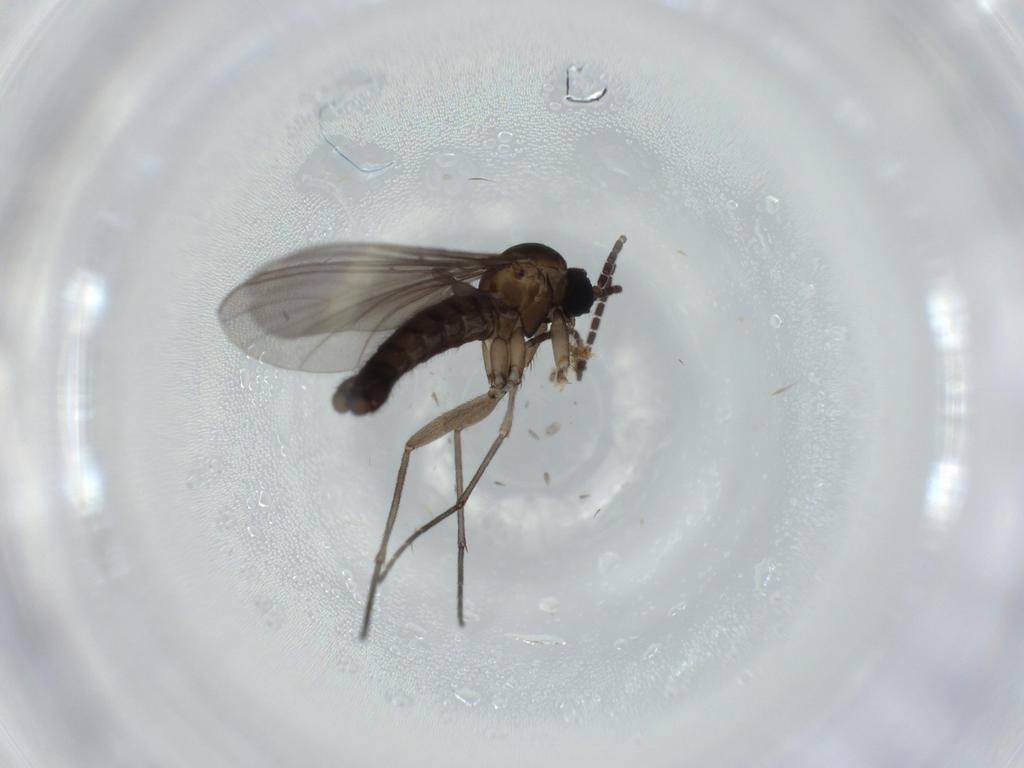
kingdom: Animalia
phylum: Arthropoda
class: Insecta
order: Diptera
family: Sciaridae
